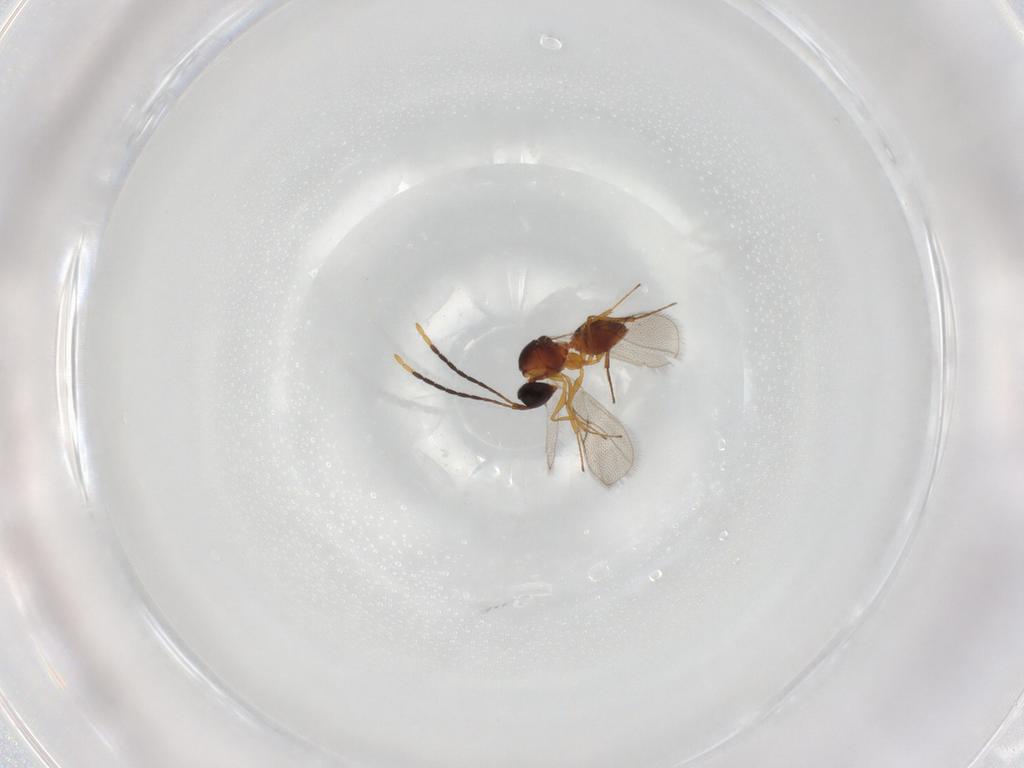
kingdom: Animalia
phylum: Arthropoda
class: Insecta
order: Hymenoptera
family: Figitidae
